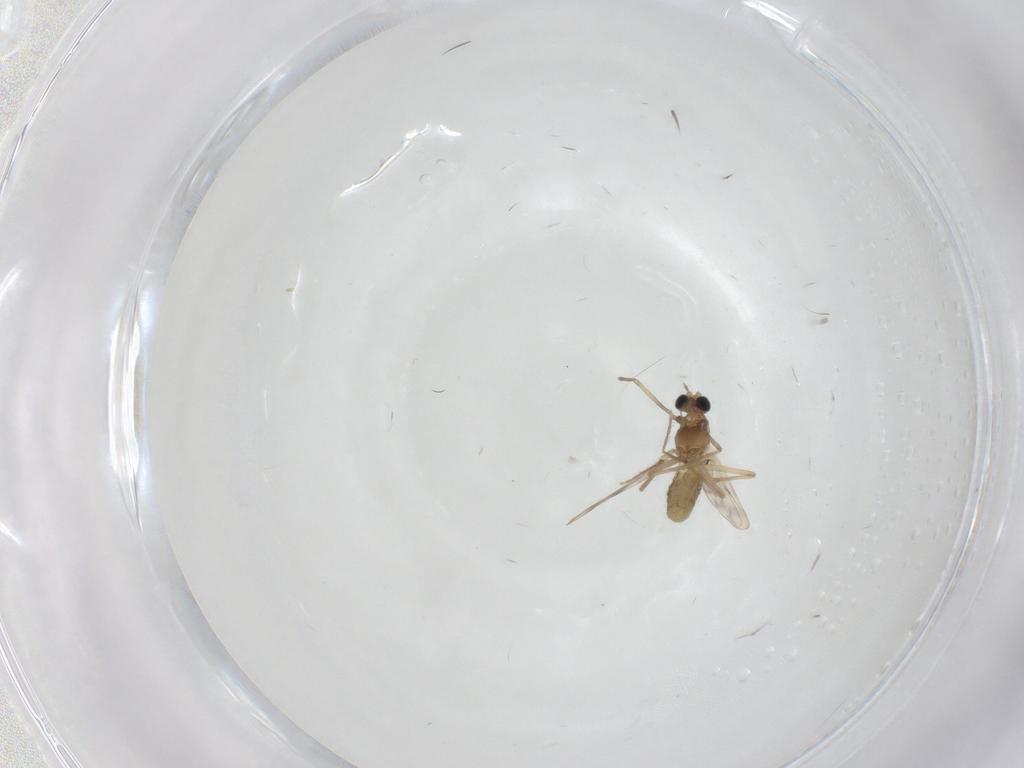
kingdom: Animalia
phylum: Arthropoda
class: Insecta
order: Diptera
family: Chironomidae
